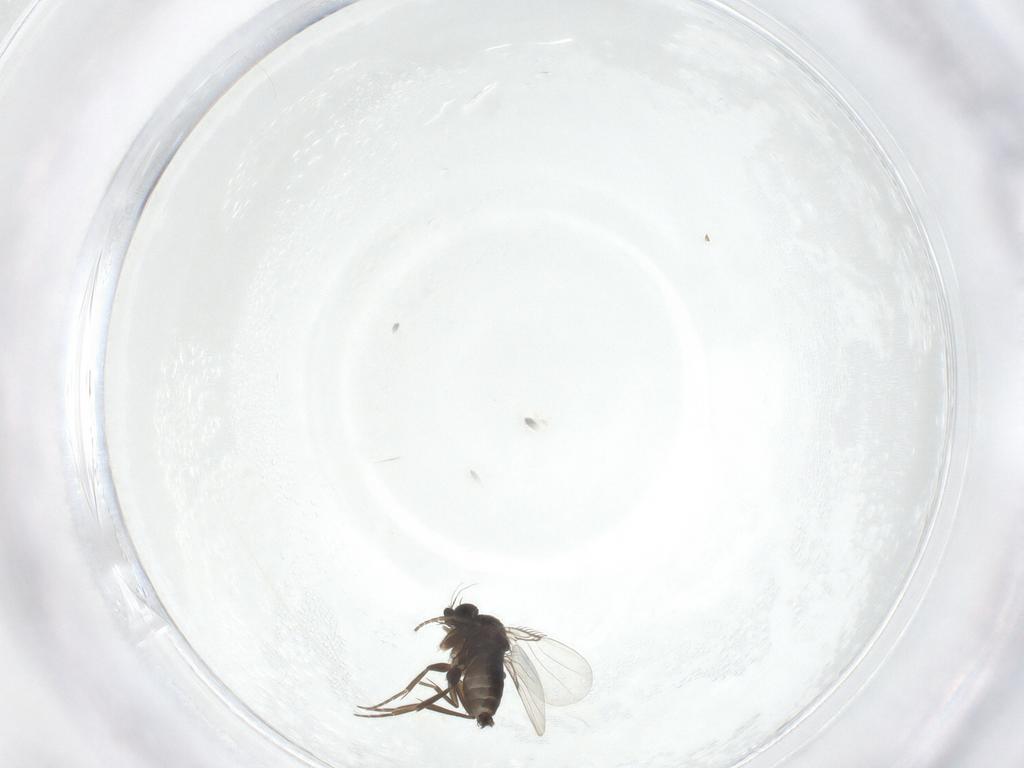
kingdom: Animalia
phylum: Arthropoda
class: Insecta
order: Diptera
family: Phoridae
